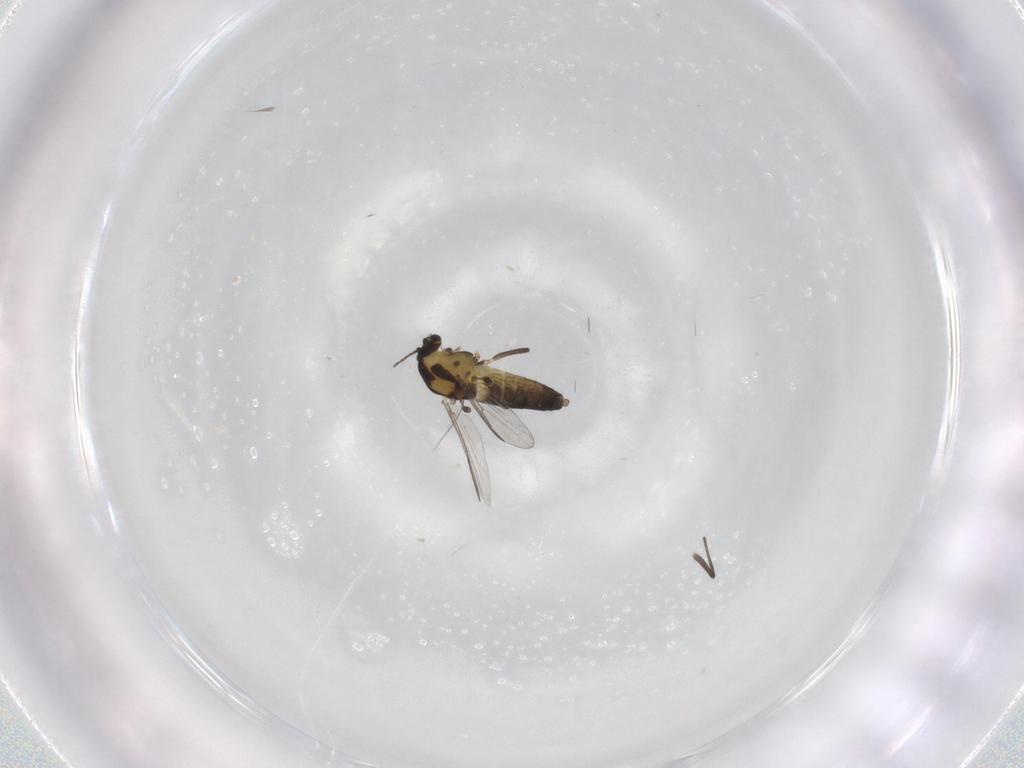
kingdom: Animalia
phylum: Arthropoda
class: Insecta
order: Diptera
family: Chironomidae
